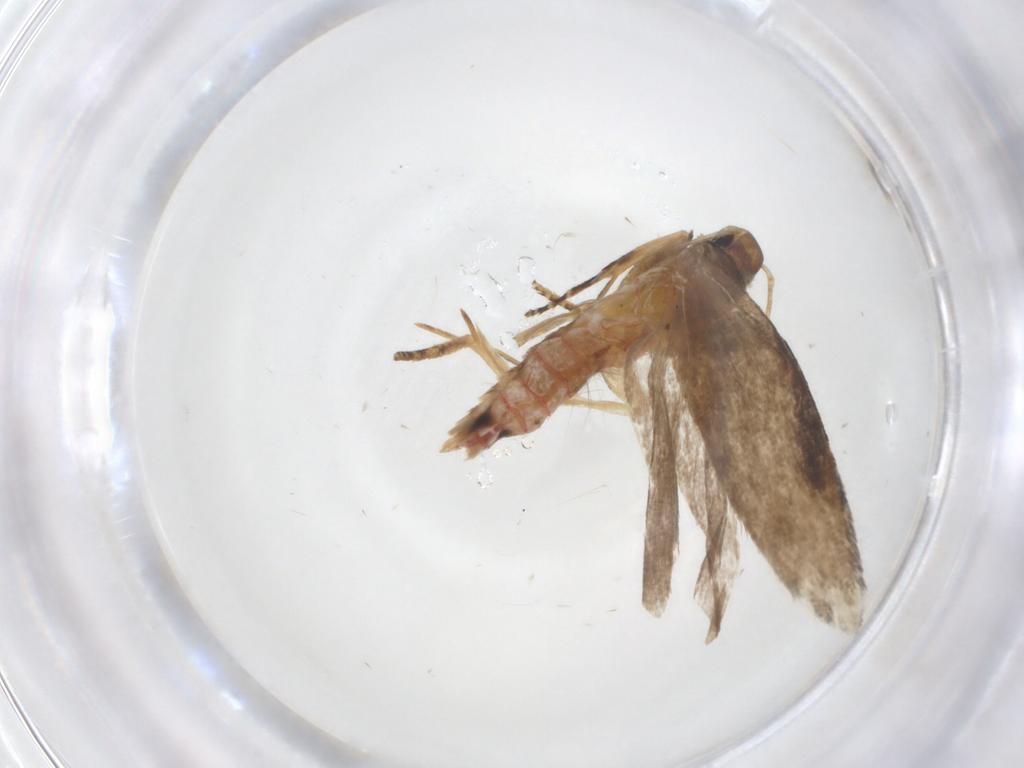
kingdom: Animalia
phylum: Arthropoda
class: Insecta
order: Lepidoptera
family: Gelechiidae
